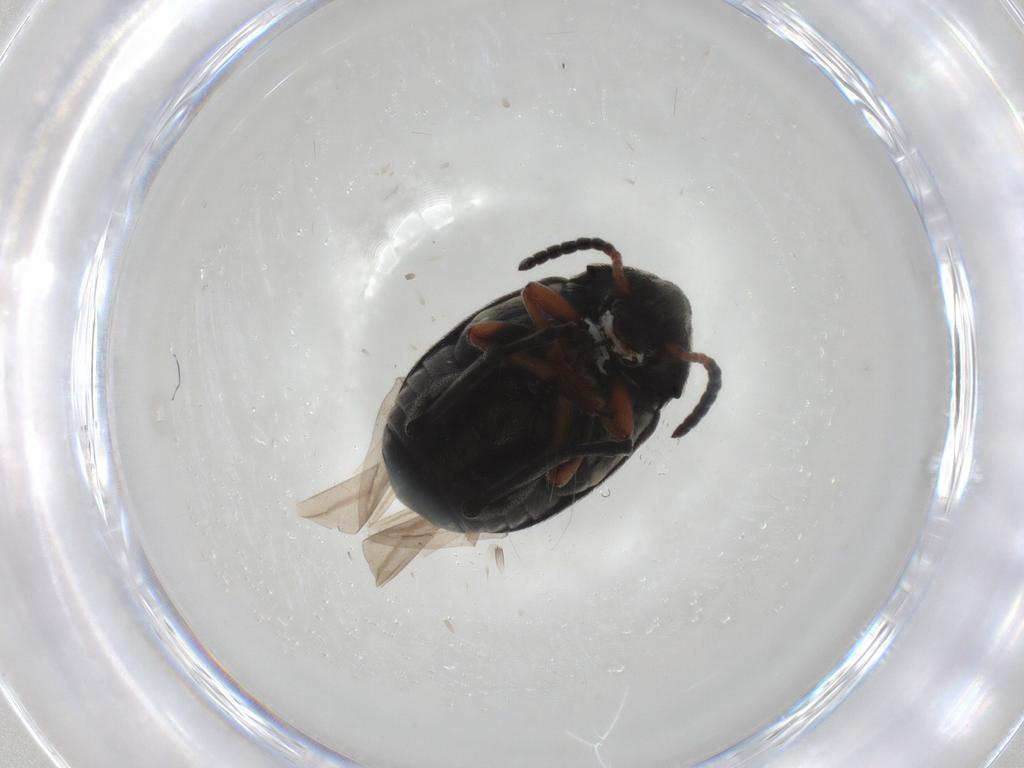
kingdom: Animalia
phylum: Arthropoda
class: Insecta
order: Coleoptera
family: Chrysomelidae
